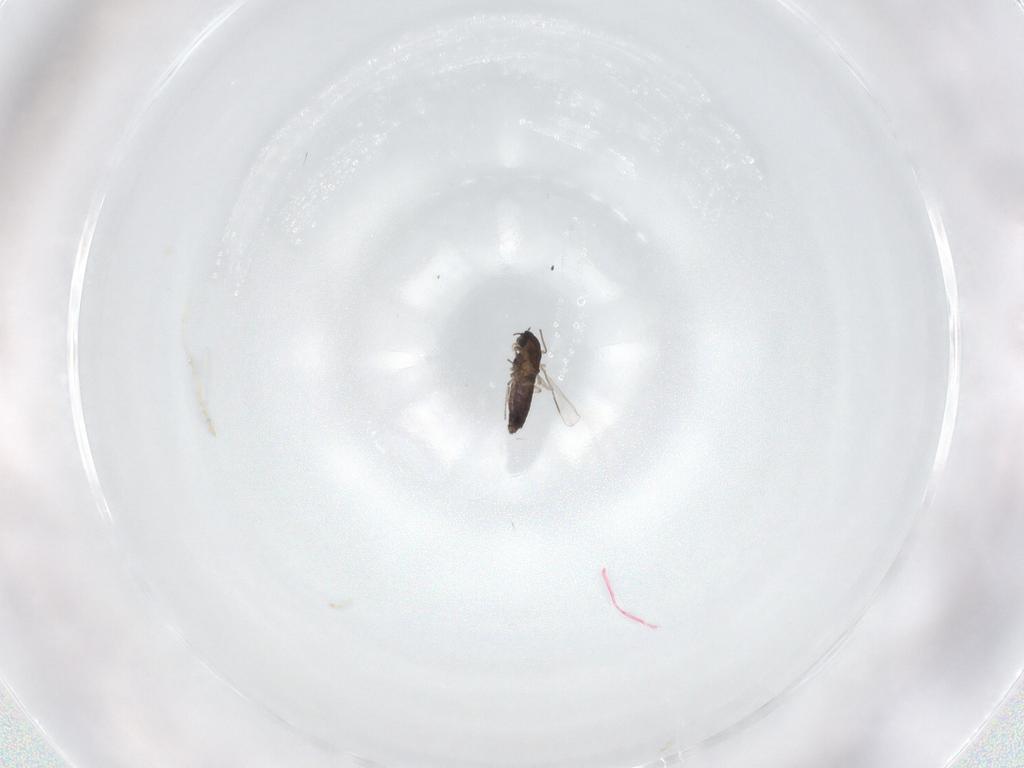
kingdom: Animalia
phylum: Arthropoda
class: Insecta
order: Diptera
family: Chironomidae
